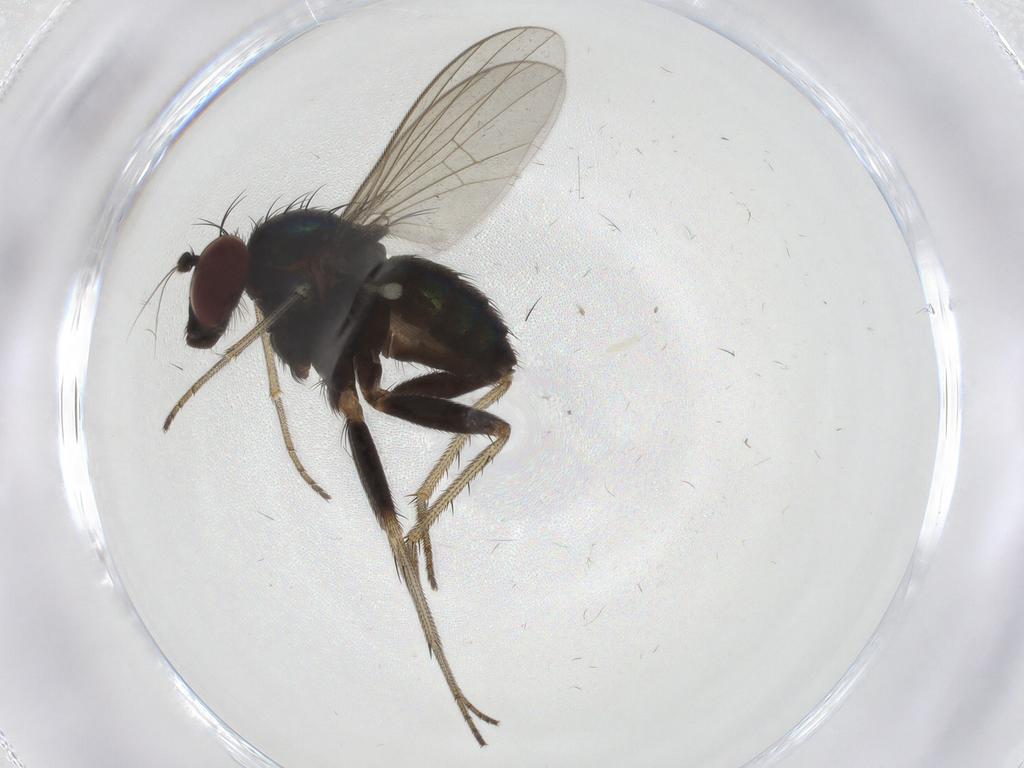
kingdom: Animalia
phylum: Arthropoda
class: Insecta
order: Diptera
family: Dolichopodidae
